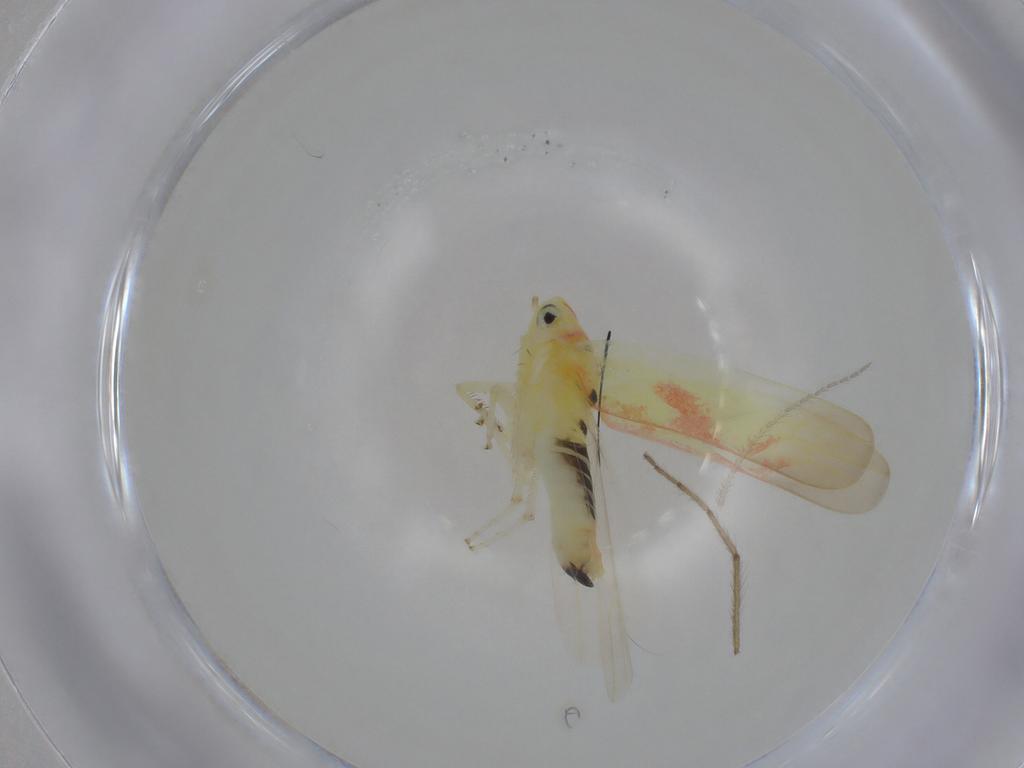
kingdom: Animalia
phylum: Arthropoda
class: Insecta
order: Hemiptera
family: Cicadellidae
